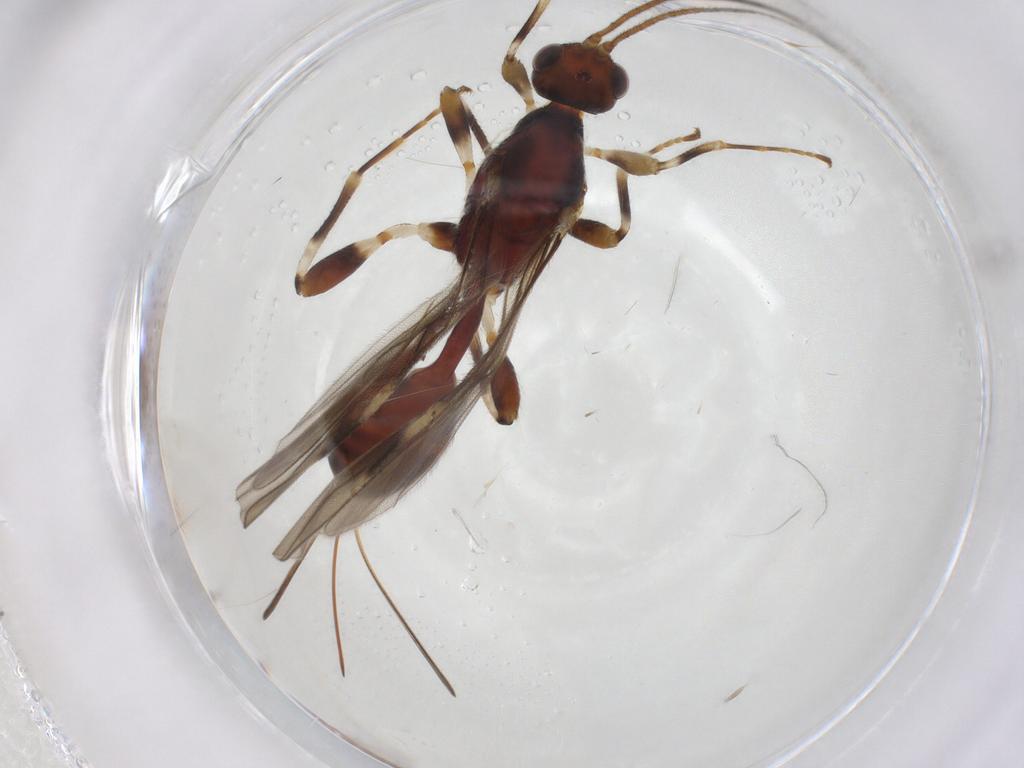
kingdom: Animalia
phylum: Arthropoda
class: Insecta
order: Hymenoptera
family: Braconidae
